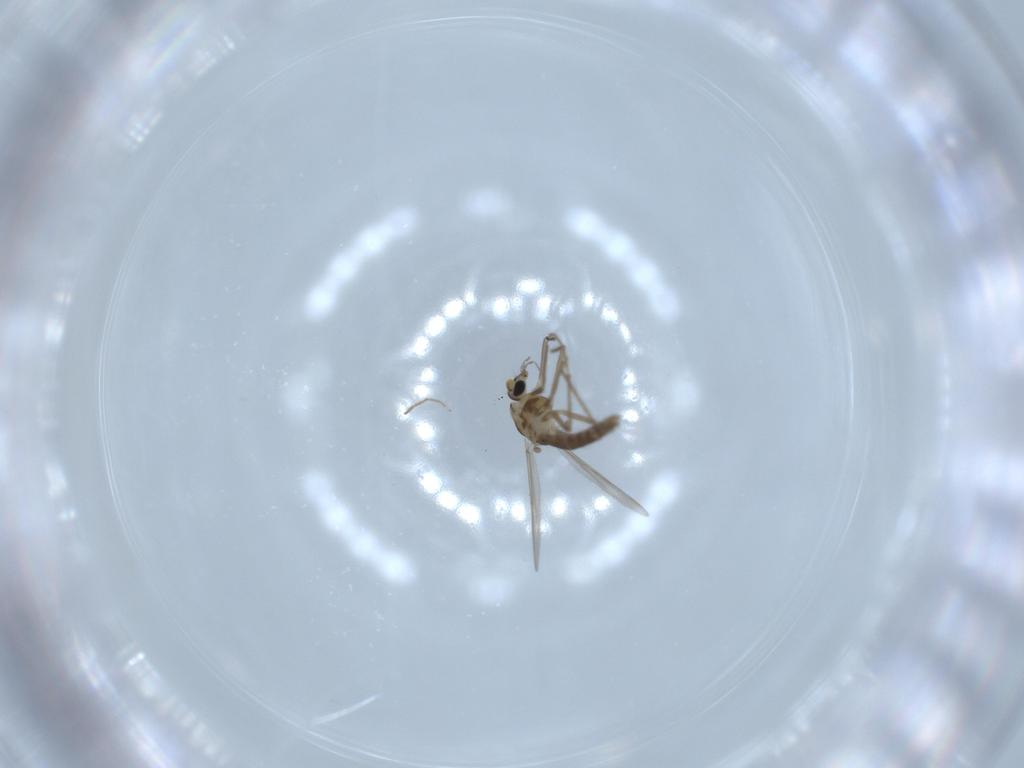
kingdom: Animalia
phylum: Arthropoda
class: Insecta
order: Diptera
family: Chironomidae
